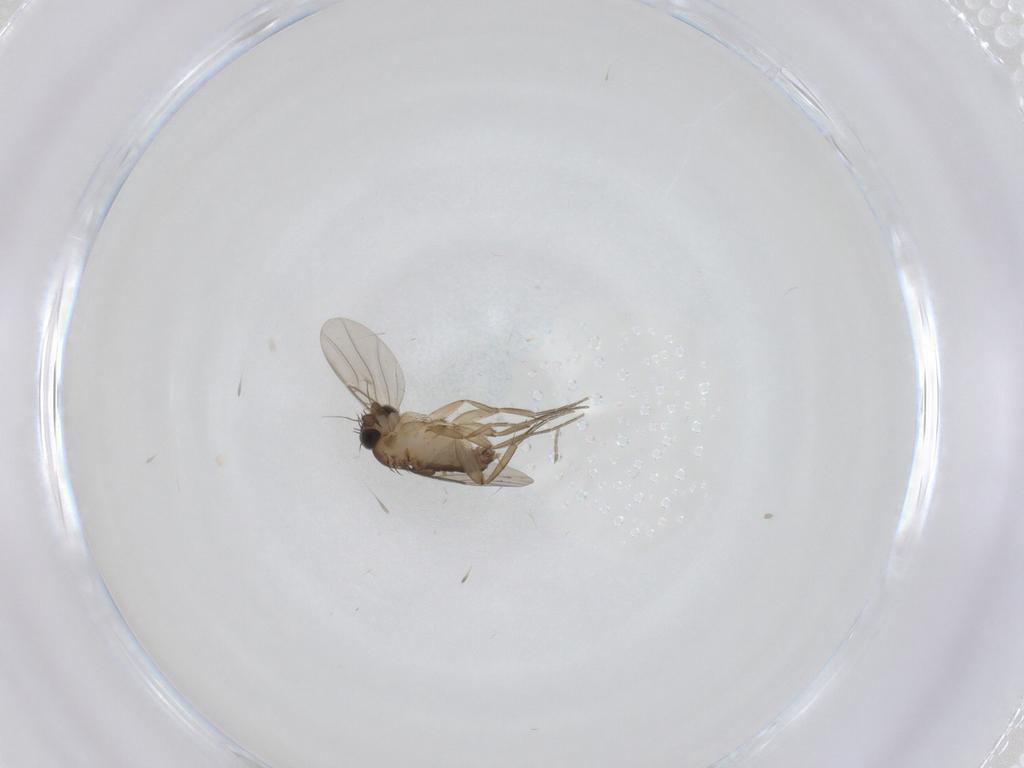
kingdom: Animalia
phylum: Arthropoda
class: Insecta
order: Diptera
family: Phoridae
